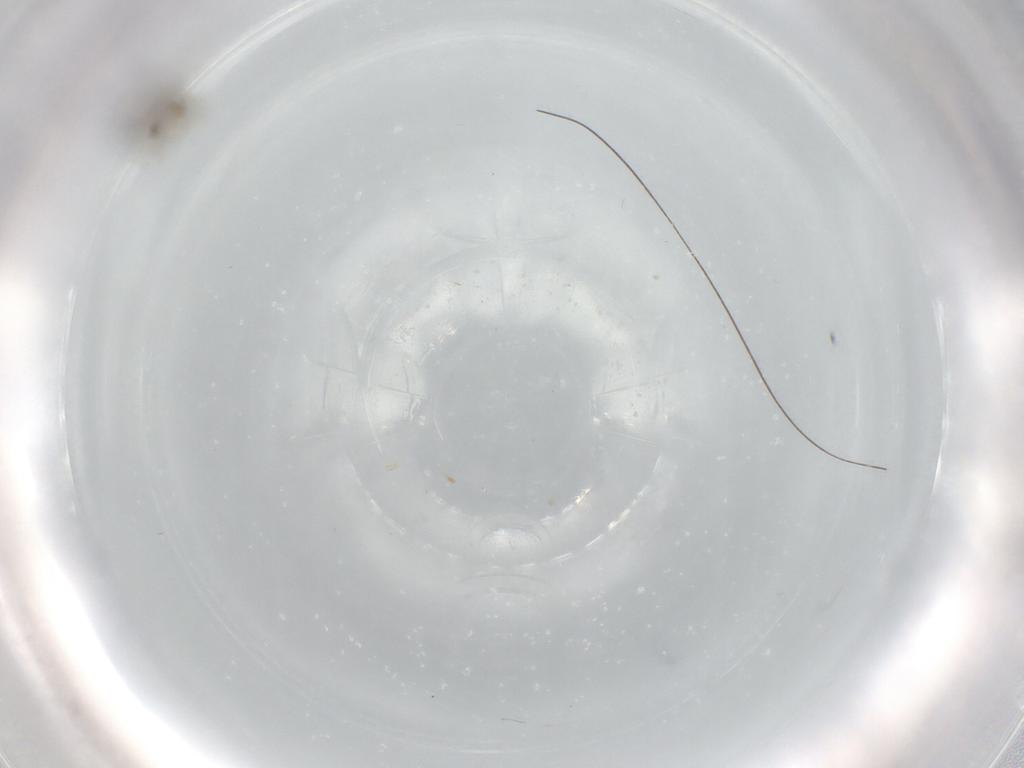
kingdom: Animalia
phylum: Arthropoda
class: Insecta
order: Diptera
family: Cecidomyiidae
